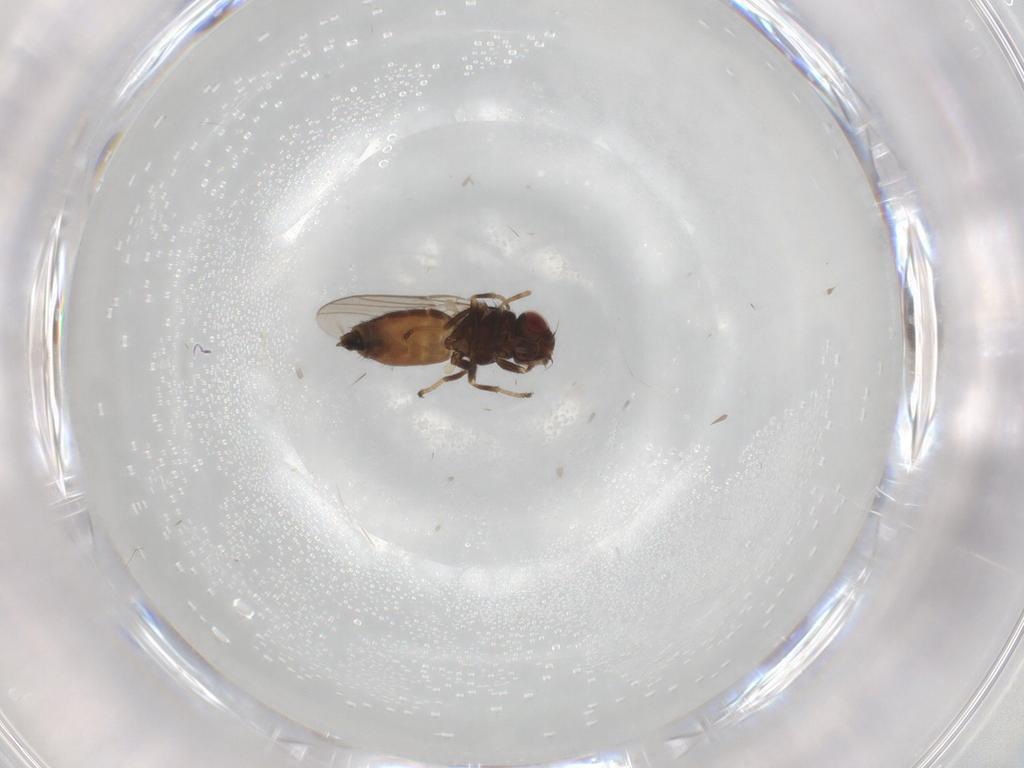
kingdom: Animalia
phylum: Arthropoda
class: Insecta
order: Diptera
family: Chloropidae
